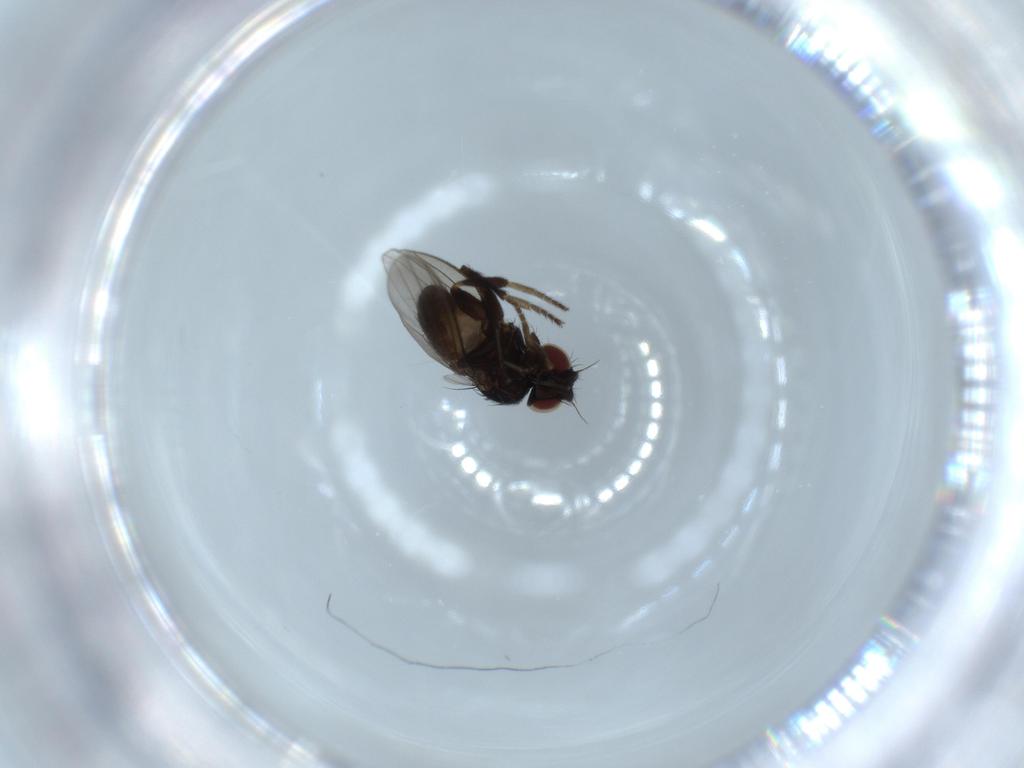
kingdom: Animalia
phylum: Arthropoda
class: Insecta
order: Diptera
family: Milichiidae
